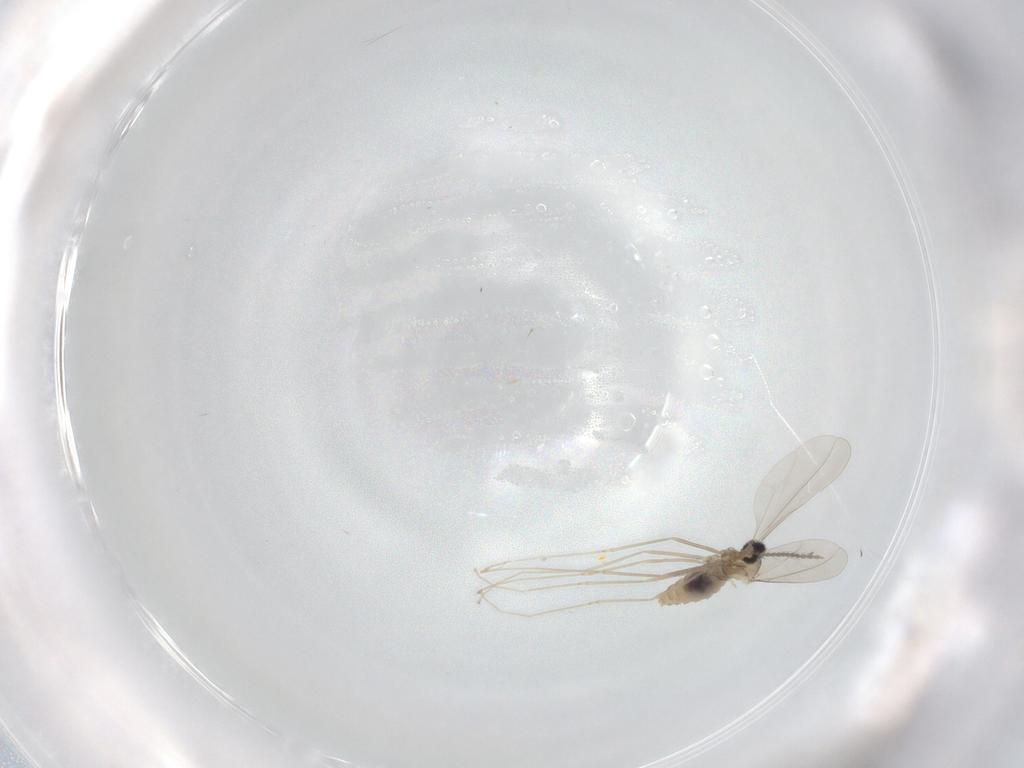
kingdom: Animalia
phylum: Arthropoda
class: Insecta
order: Diptera
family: Cecidomyiidae
